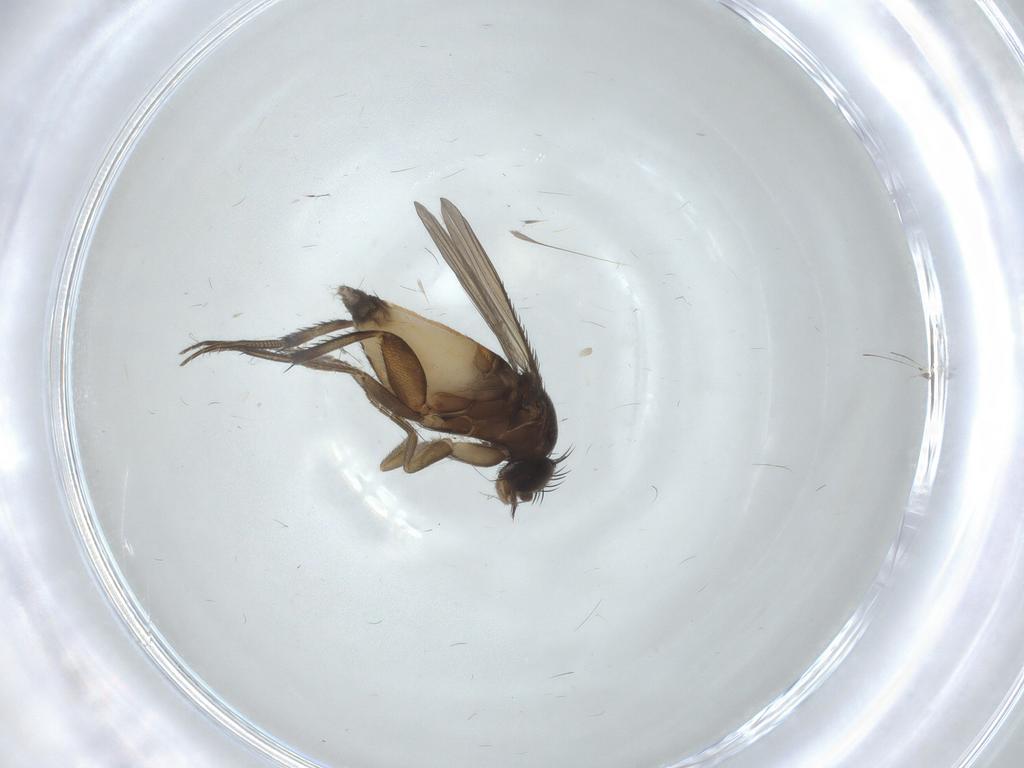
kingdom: Animalia
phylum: Arthropoda
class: Insecta
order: Diptera
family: Phoridae
